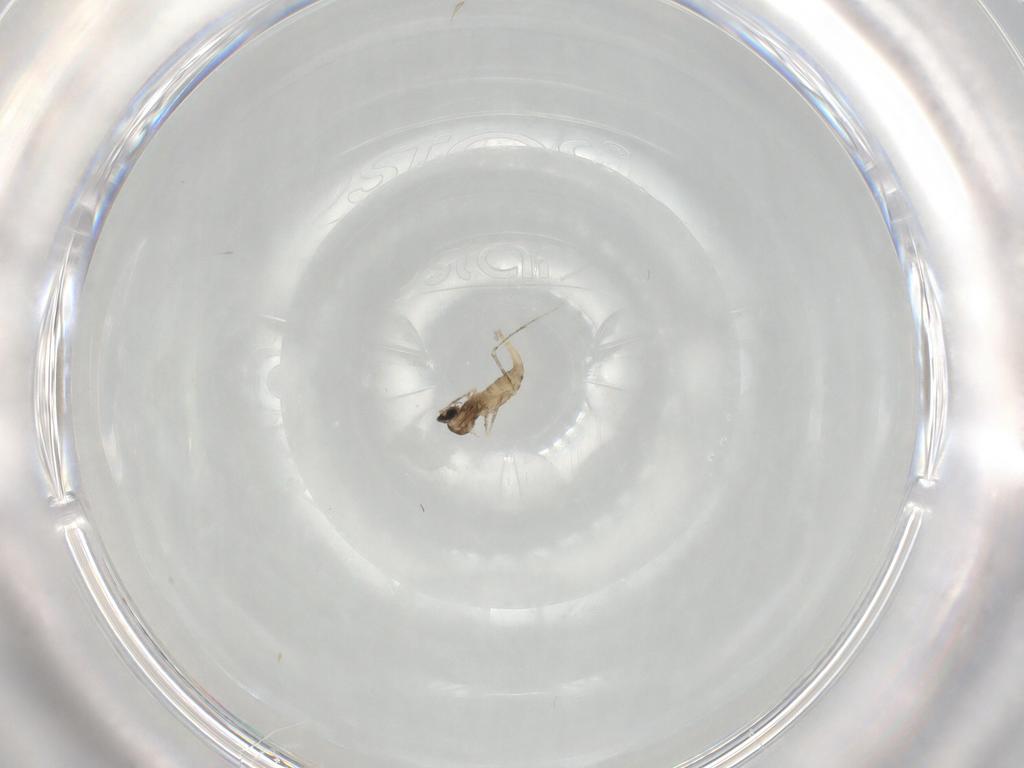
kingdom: Animalia
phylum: Arthropoda
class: Insecta
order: Diptera
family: Cecidomyiidae
